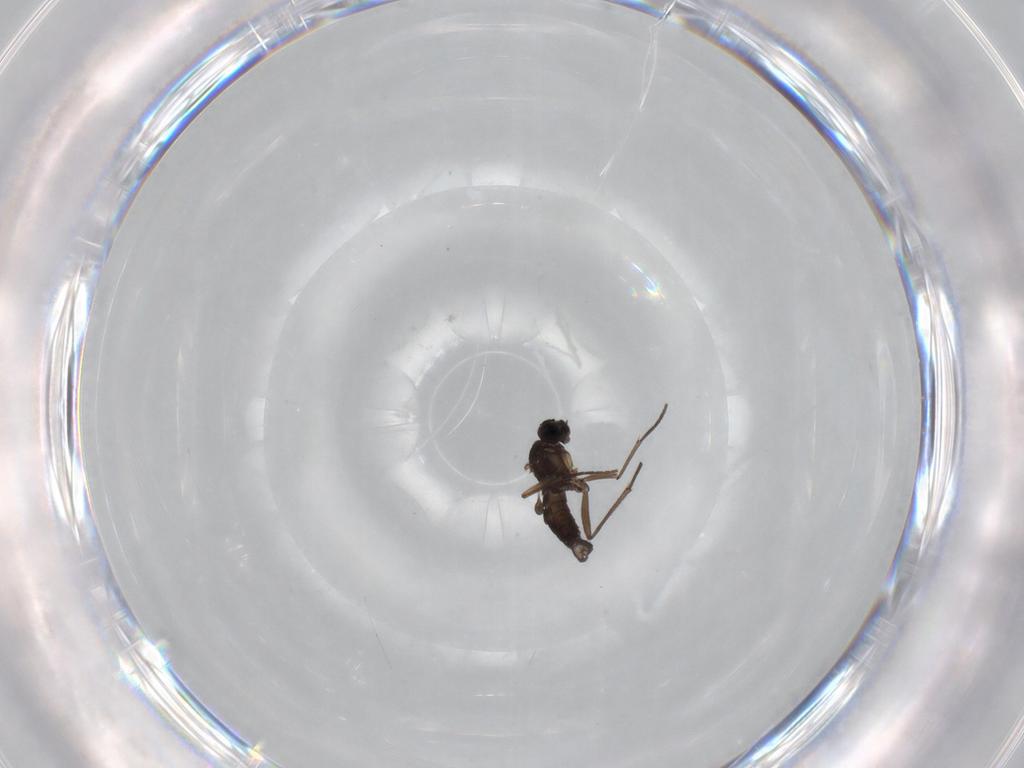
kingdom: Animalia
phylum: Arthropoda
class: Insecta
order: Diptera
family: Sciaridae
